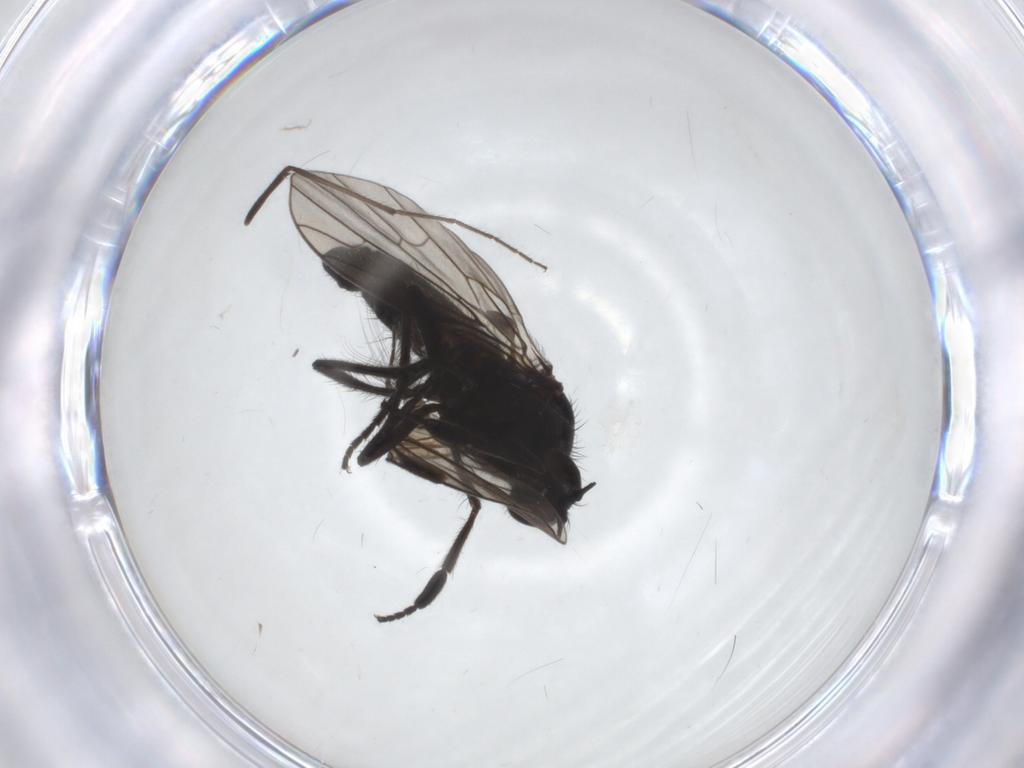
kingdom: Animalia
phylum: Arthropoda
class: Insecta
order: Diptera
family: Empididae
